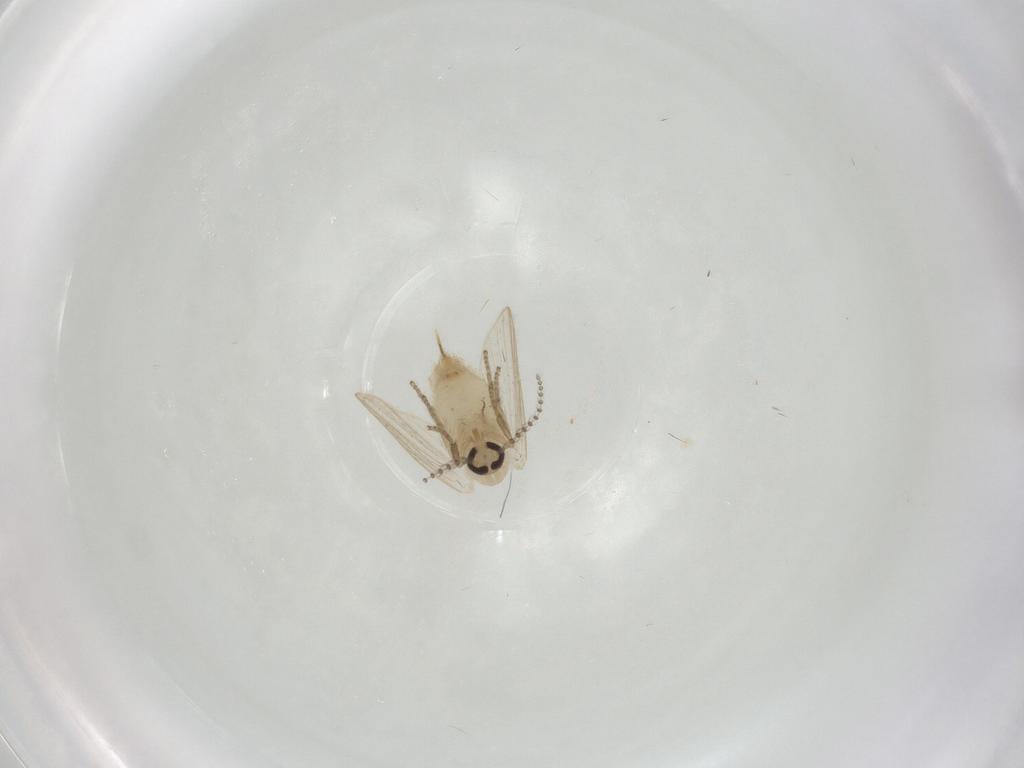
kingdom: Animalia
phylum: Arthropoda
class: Insecta
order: Diptera
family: Psychodidae
